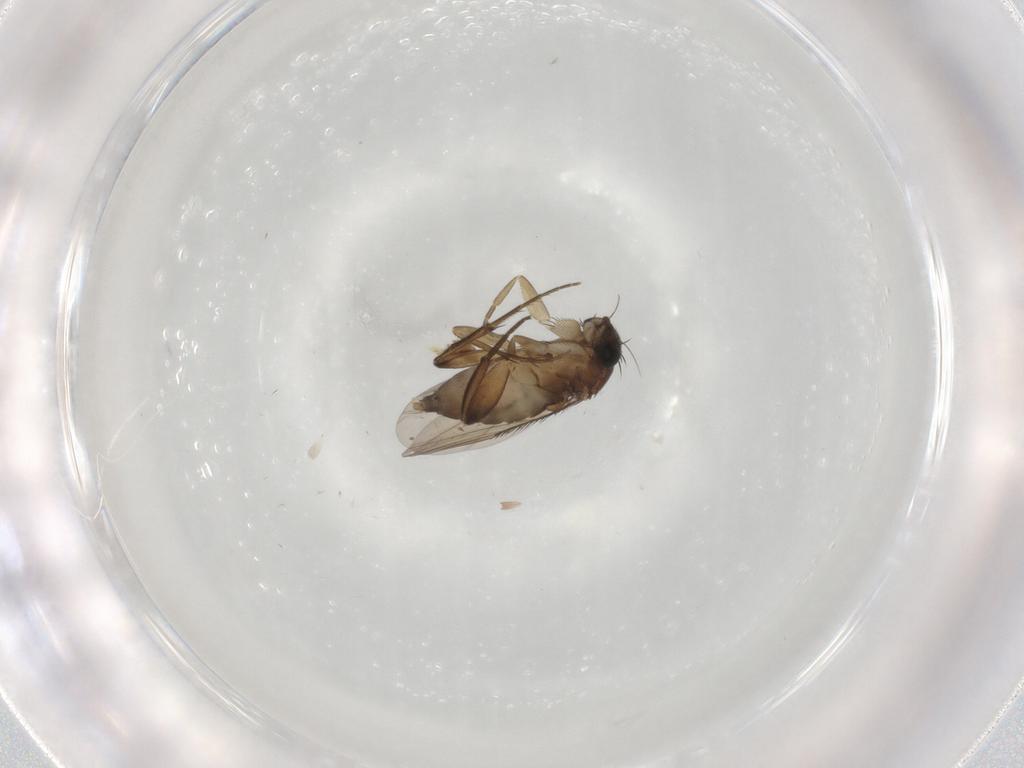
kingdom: Animalia
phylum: Arthropoda
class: Insecta
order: Diptera
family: Phoridae
